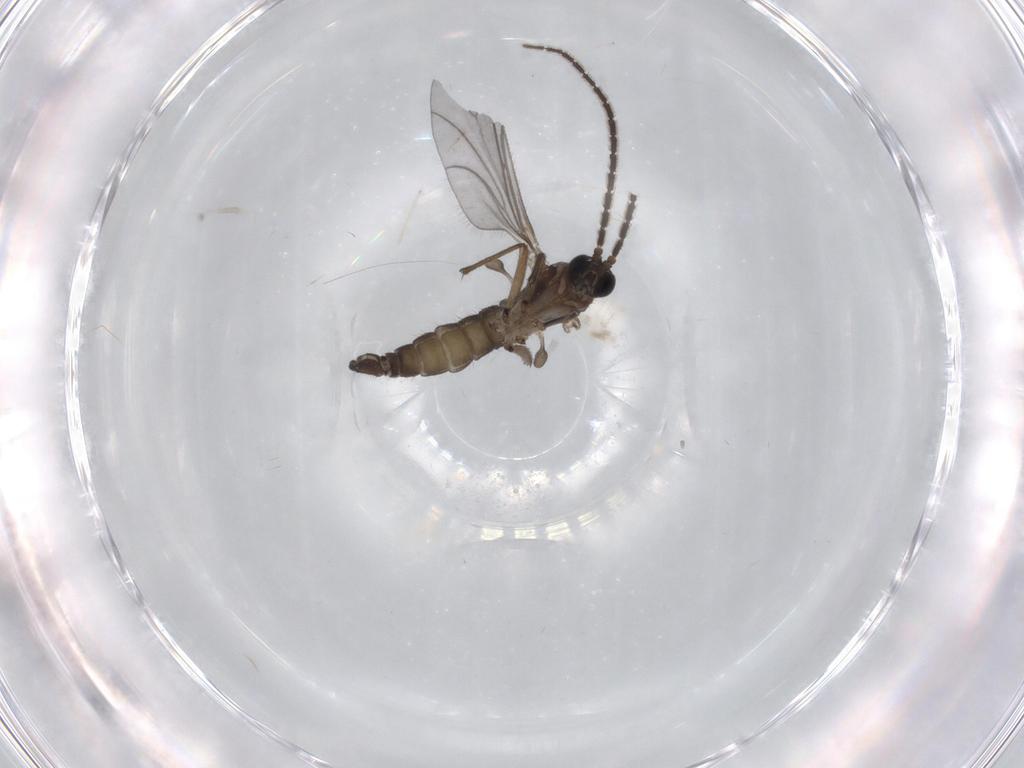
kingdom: Animalia
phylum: Arthropoda
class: Insecta
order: Diptera
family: Cecidomyiidae
